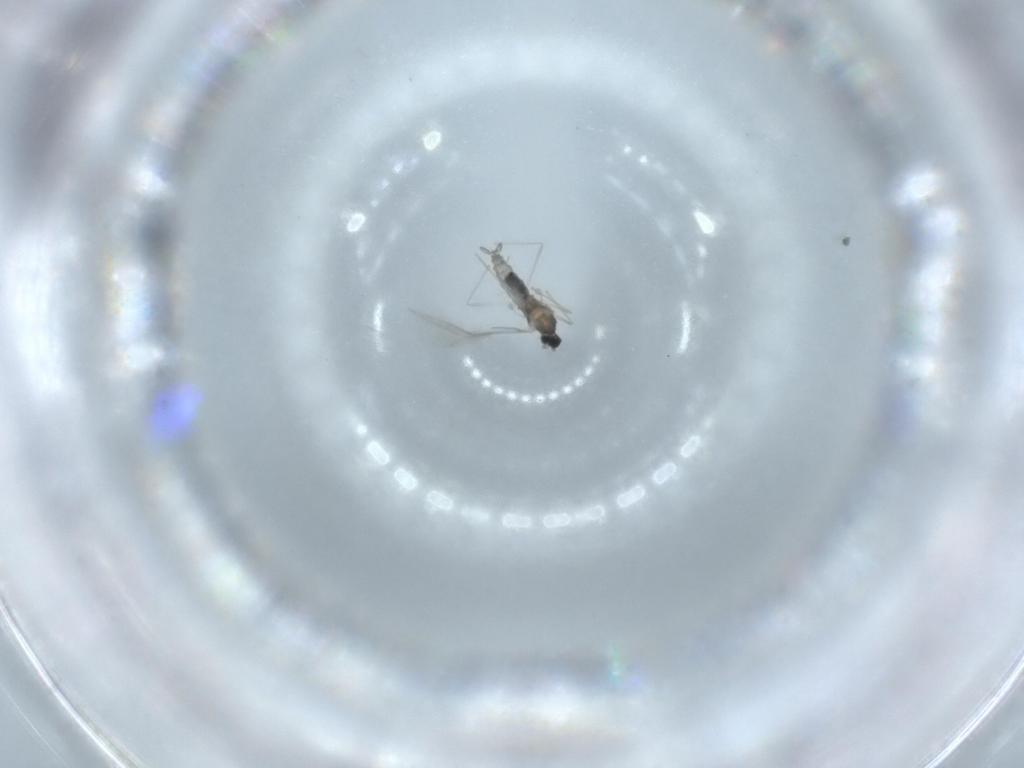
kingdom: Animalia
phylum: Arthropoda
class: Insecta
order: Diptera
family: Cecidomyiidae
